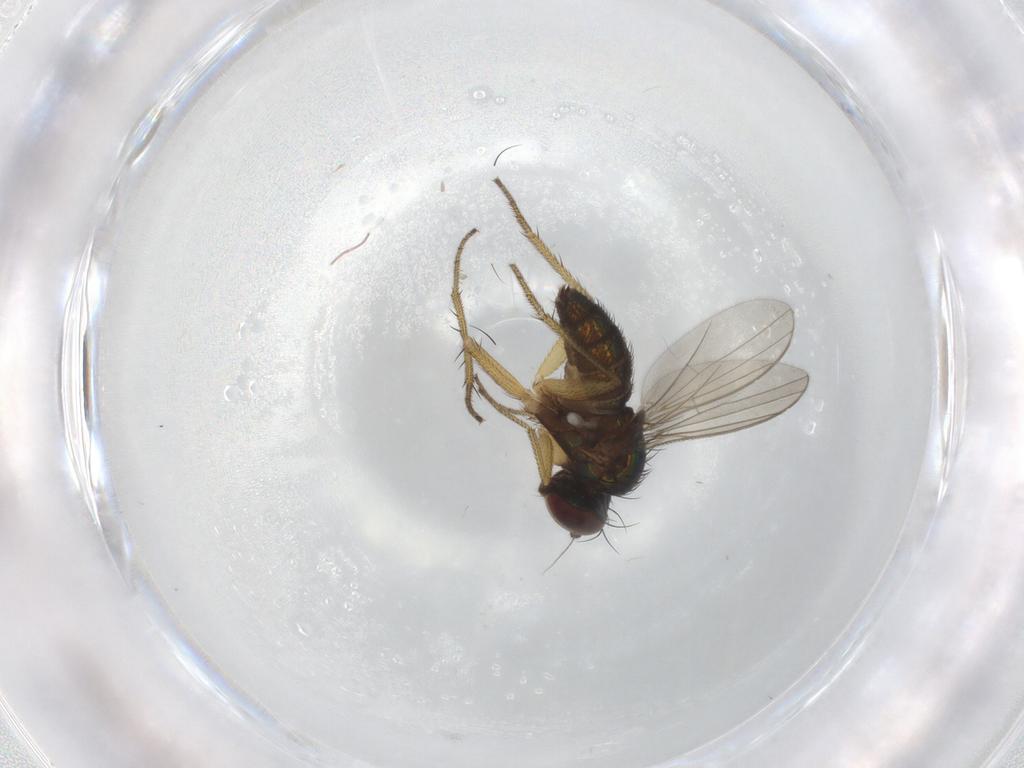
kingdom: Animalia
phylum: Arthropoda
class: Insecta
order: Diptera
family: Dolichopodidae
